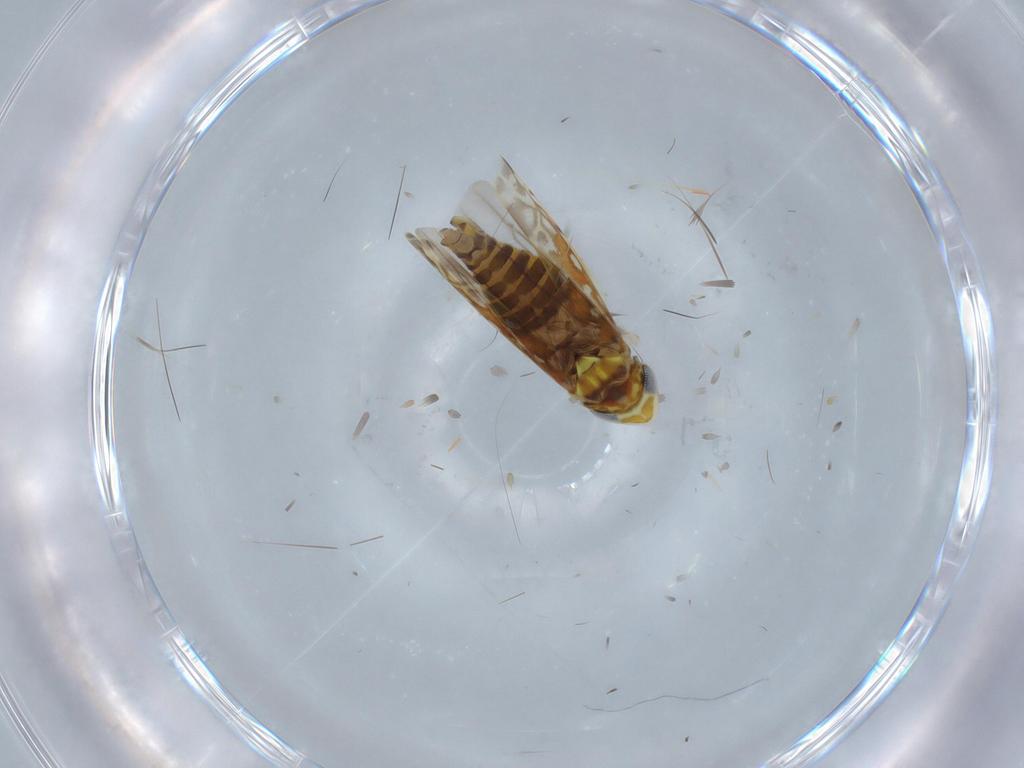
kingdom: Animalia
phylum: Arthropoda
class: Insecta
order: Hemiptera
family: Cicadellidae
